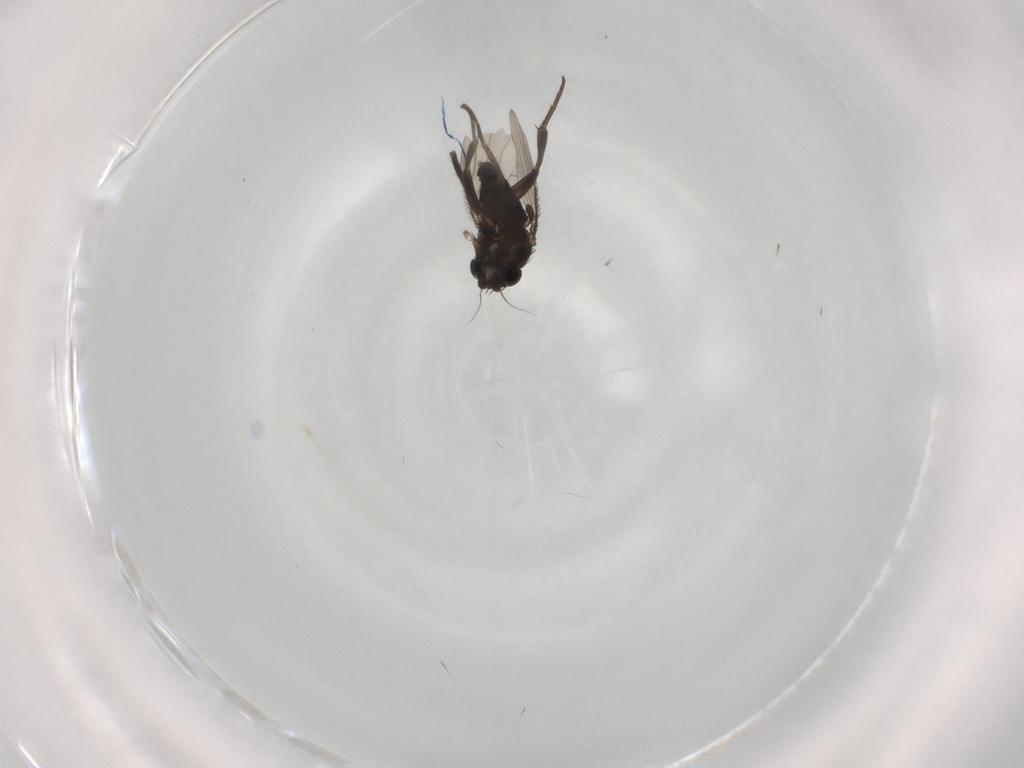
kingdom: Animalia
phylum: Arthropoda
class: Insecta
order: Diptera
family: Phoridae
